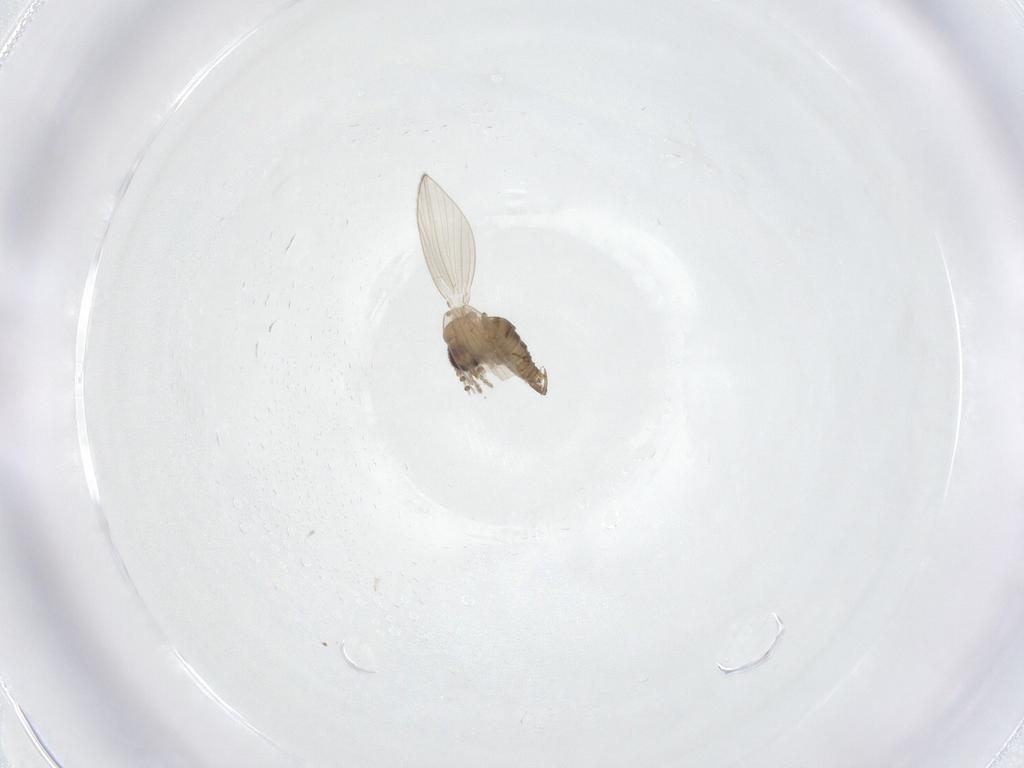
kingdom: Animalia
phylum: Arthropoda
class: Insecta
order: Diptera
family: Psychodidae
